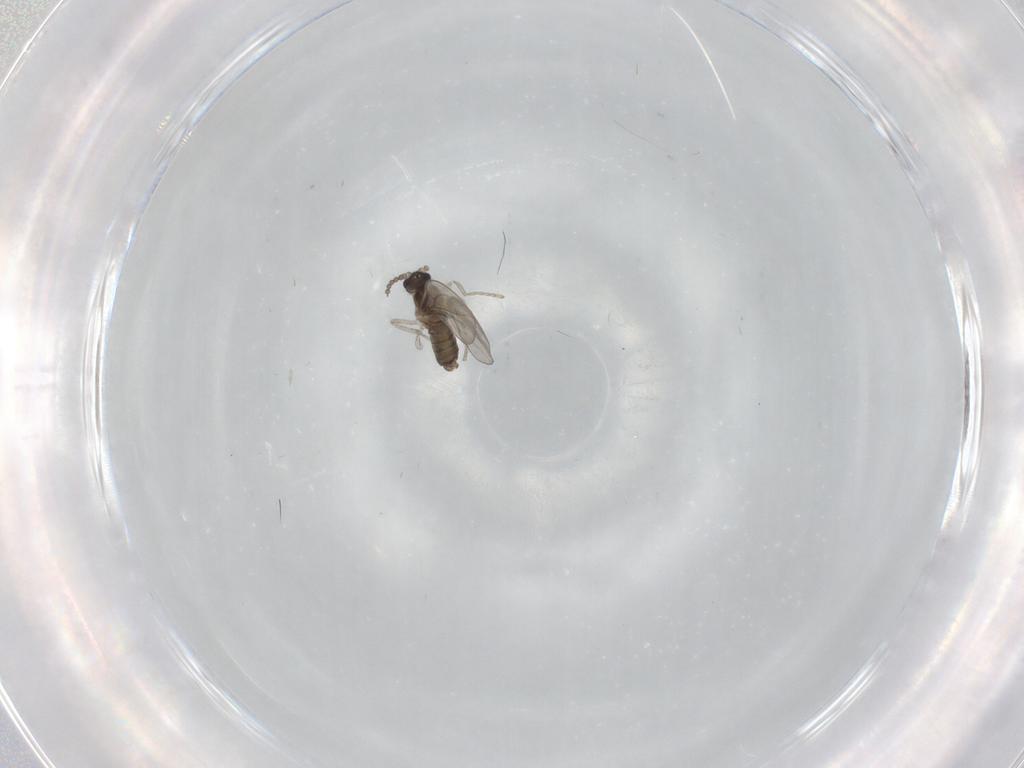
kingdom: Animalia
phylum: Arthropoda
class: Insecta
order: Diptera
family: Phoridae
